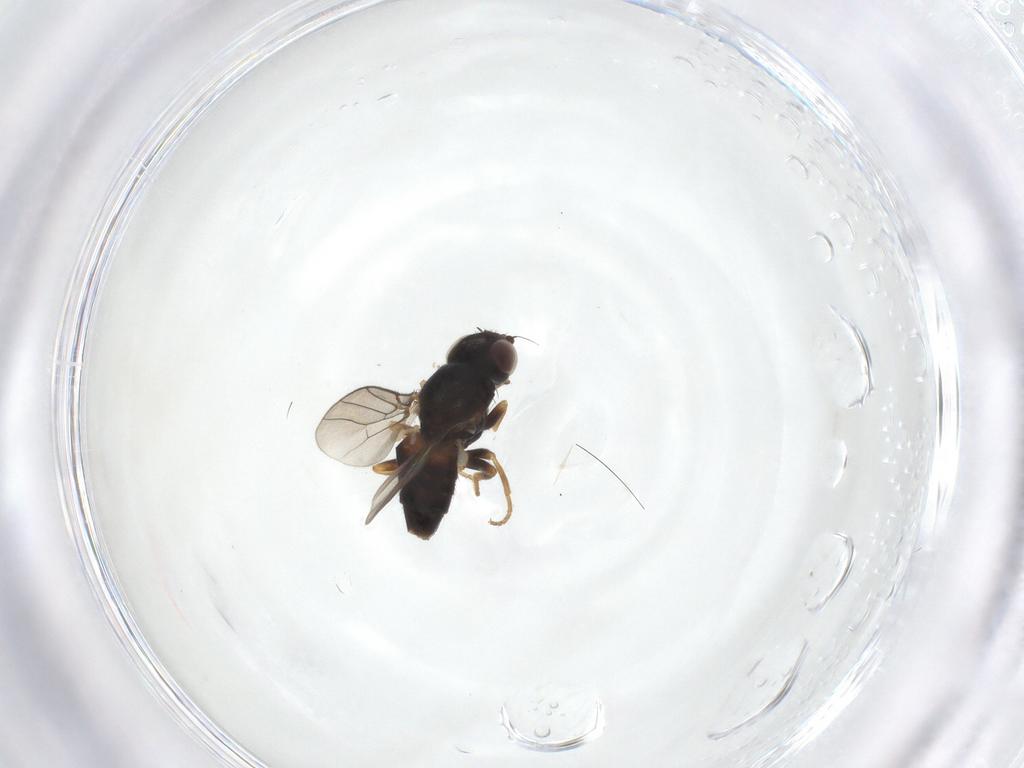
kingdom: Animalia
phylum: Arthropoda
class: Insecta
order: Diptera
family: Chloropidae
